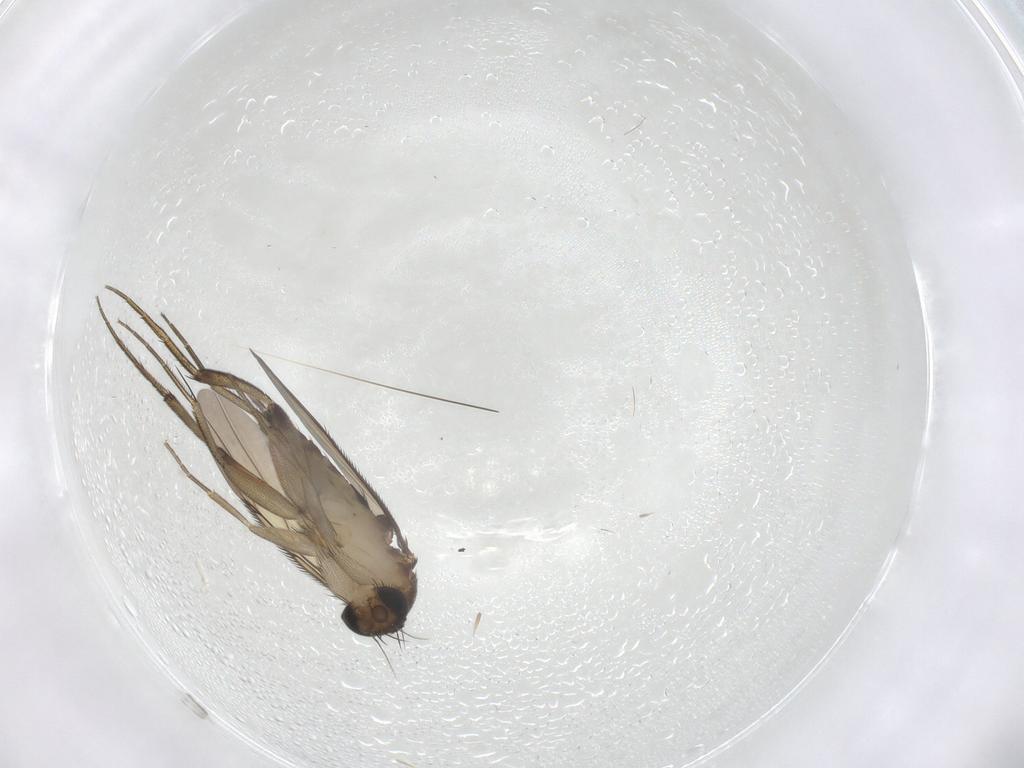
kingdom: Animalia
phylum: Arthropoda
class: Insecta
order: Diptera
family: Phoridae
